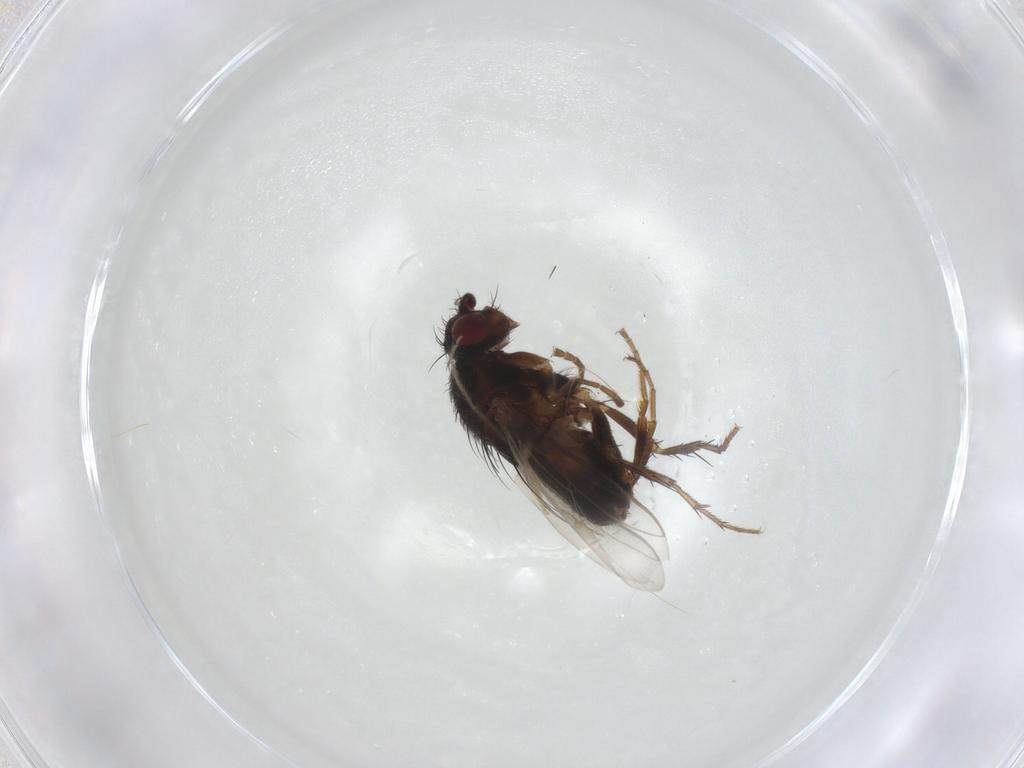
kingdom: Animalia
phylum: Arthropoda
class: Insecta
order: Diptera
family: Sphaeroceridae
